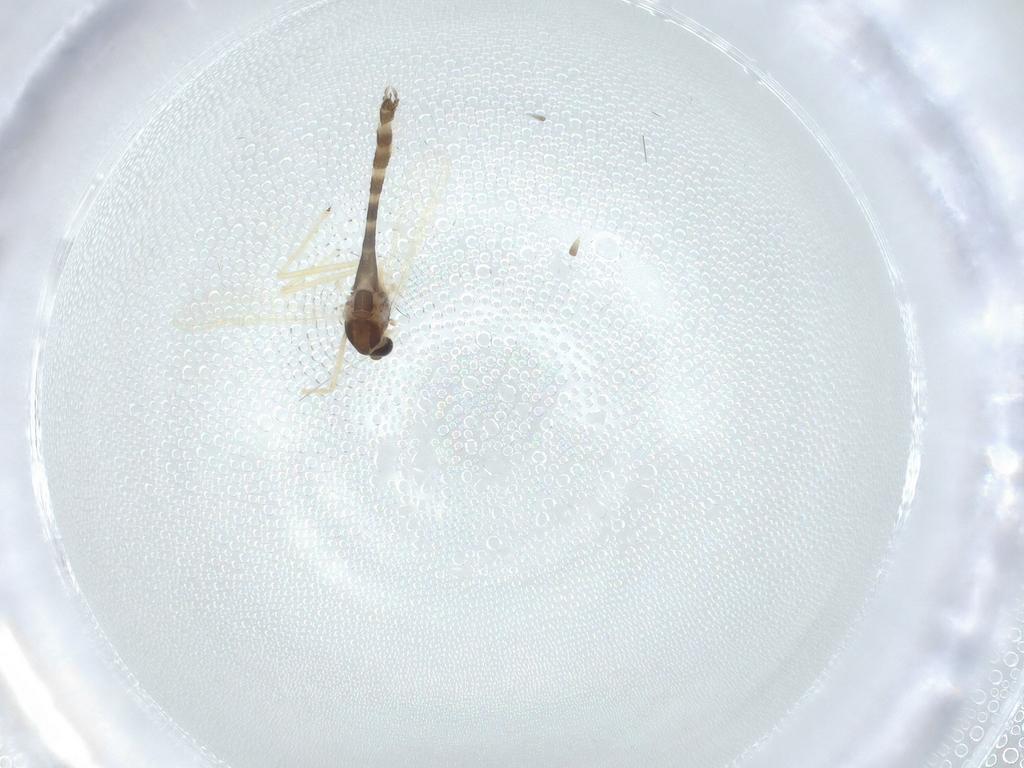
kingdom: Animalia
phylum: Arthropoda
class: Insecta
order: Diptera
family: Chironomidae
